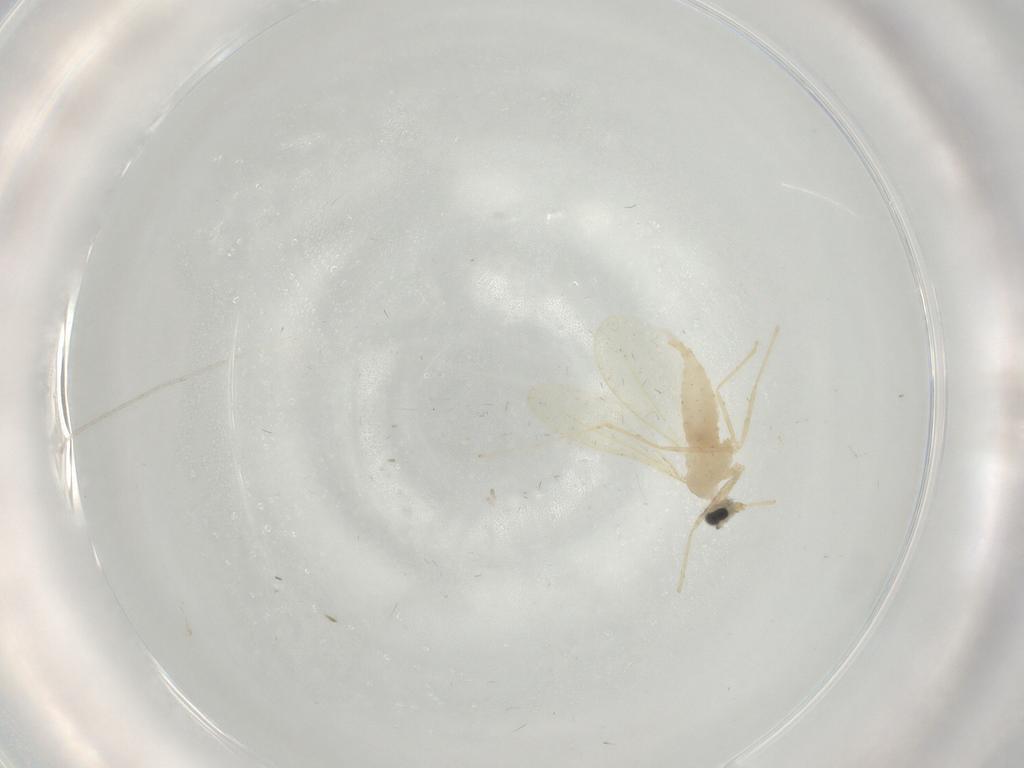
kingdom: Animalia
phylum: Arthropoda
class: Insecta
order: Diptera
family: Cecidomyiidae
